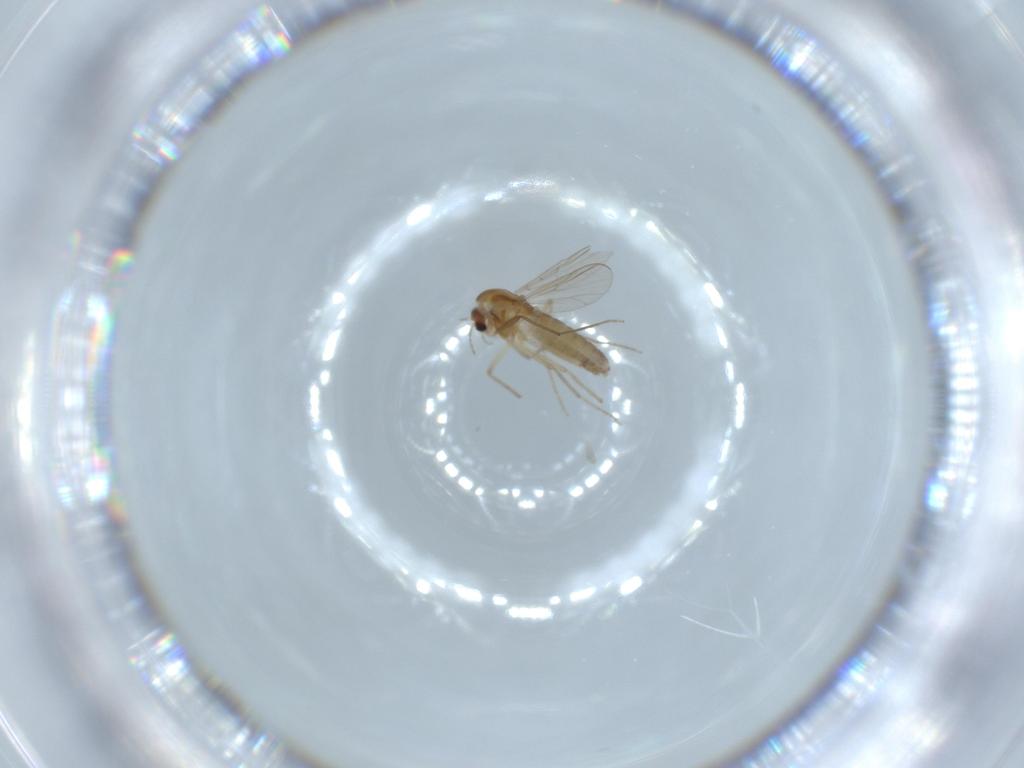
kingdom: Animalia
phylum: Arthropoda
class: Insecta
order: Diptera
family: Chironomidae
